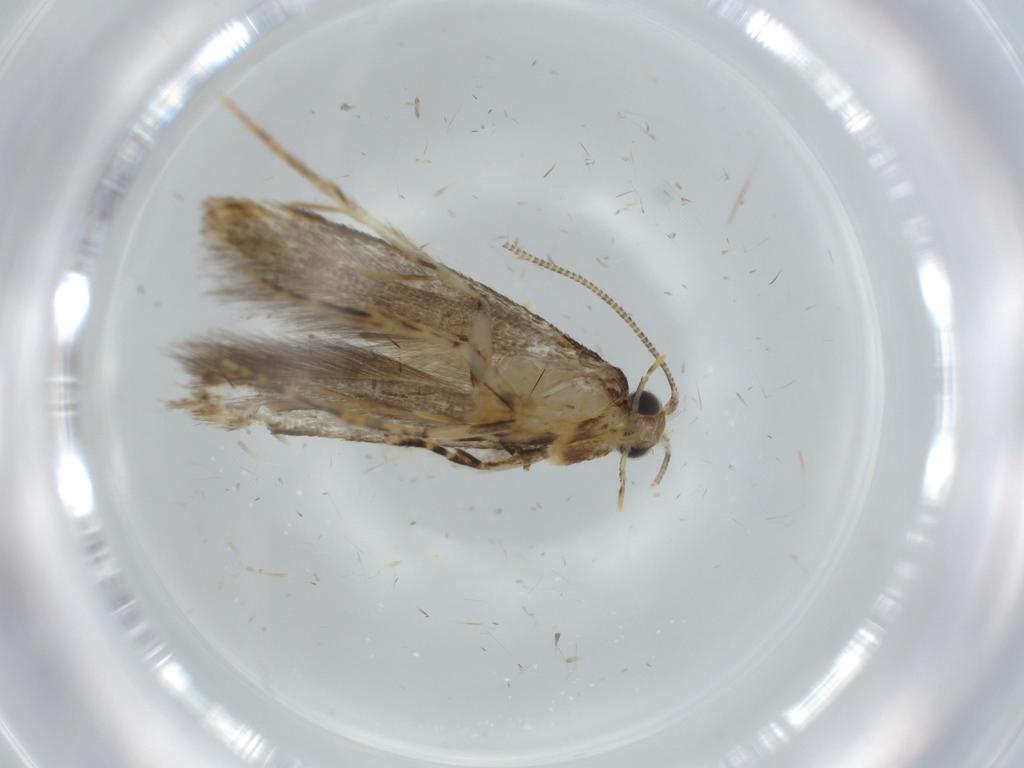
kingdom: Animalia
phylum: Arthropoda
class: Insecta
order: Lepidoptera
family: Tineidae
